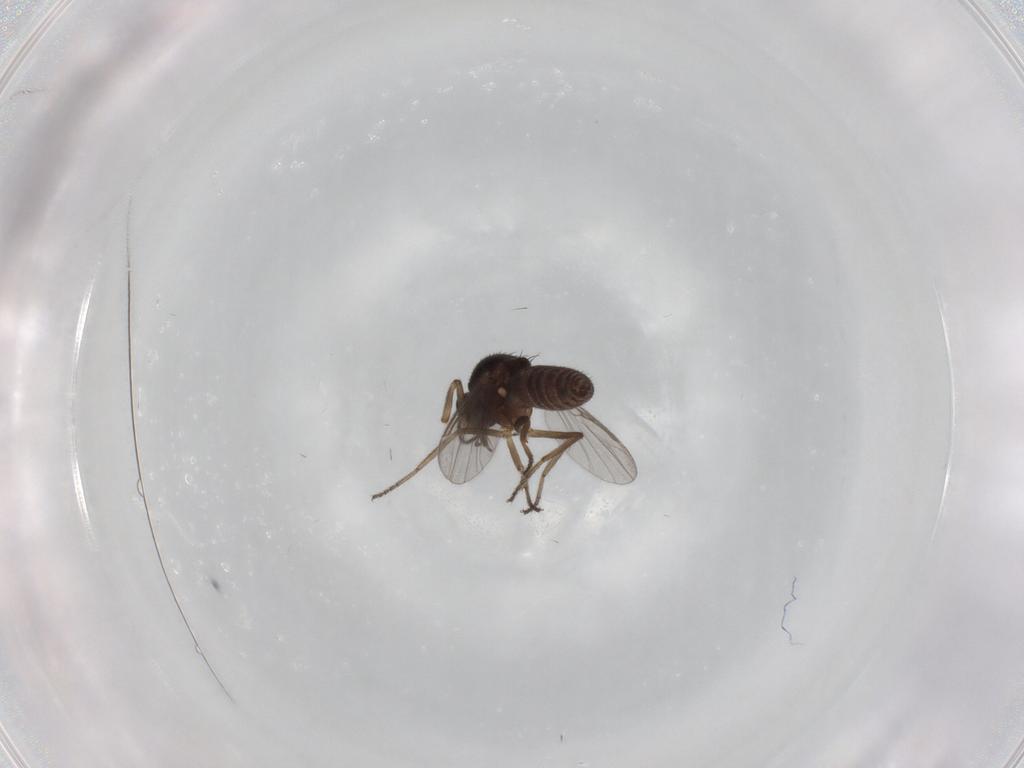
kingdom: Animalia
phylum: Arthropoda
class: Insecta
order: Diptera
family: Ceratopogonidae
